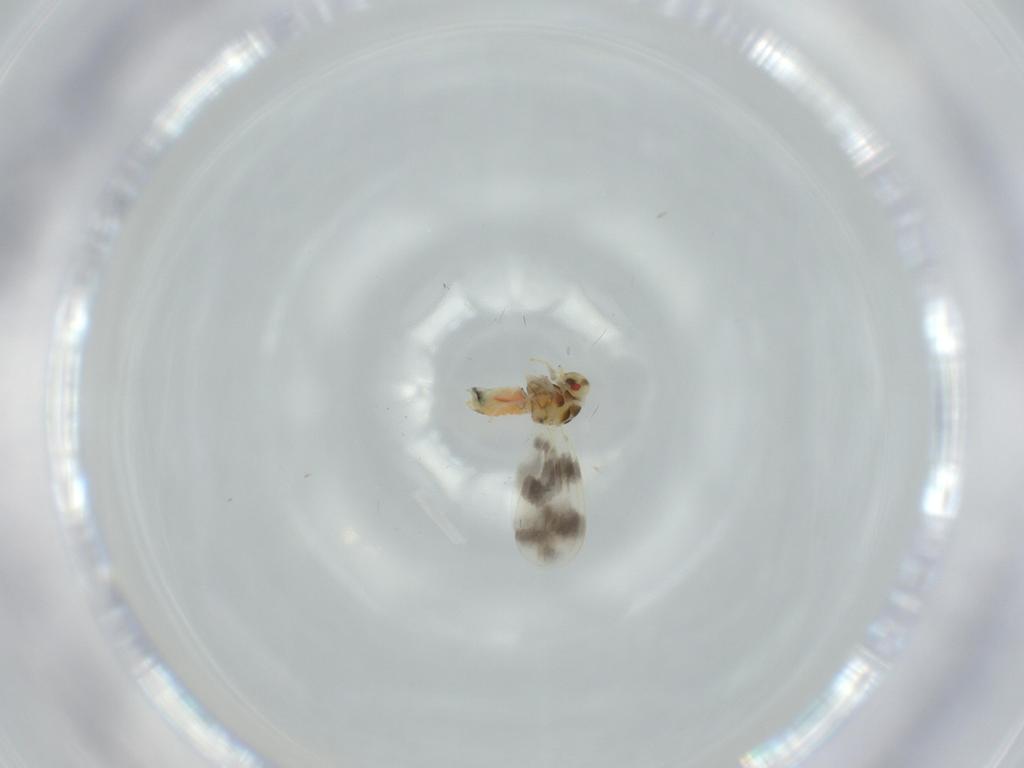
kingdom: Animalia
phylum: Arthropoda
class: Insecta
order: Hemiptera
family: Aleyrodidae
